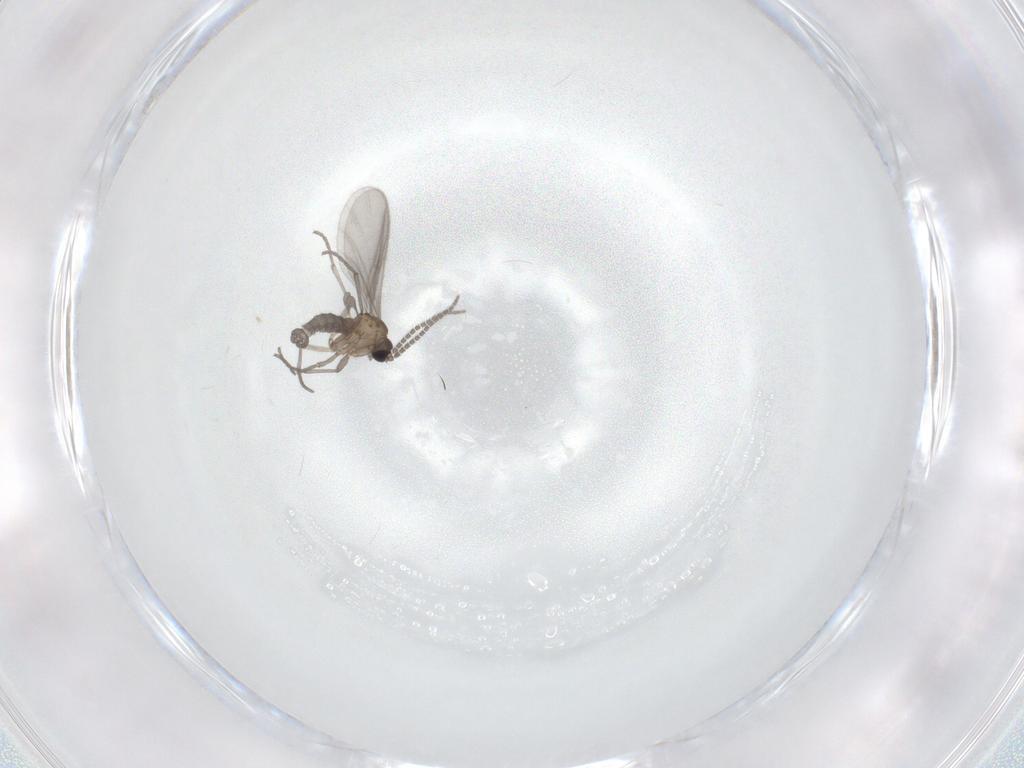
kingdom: Animalia
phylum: Arthropoda
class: Insecta
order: Diptera
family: Sciaridae
